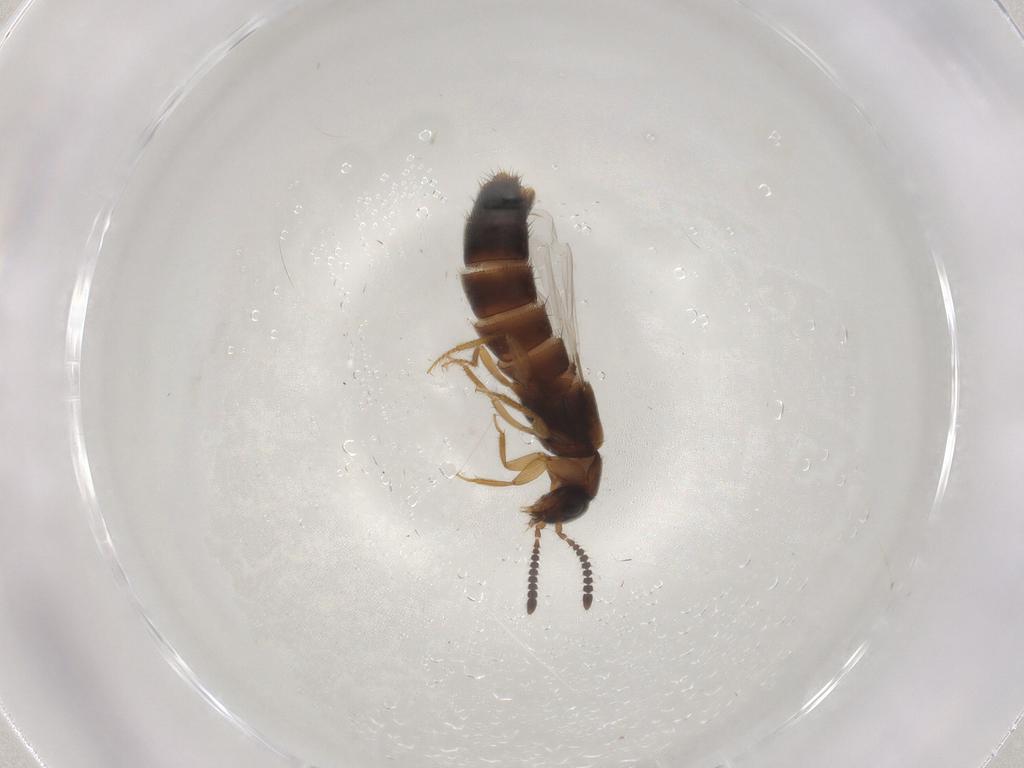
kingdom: Animalia
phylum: Arthropoda
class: Insecta
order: Coleoptera
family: Staphylinidae
